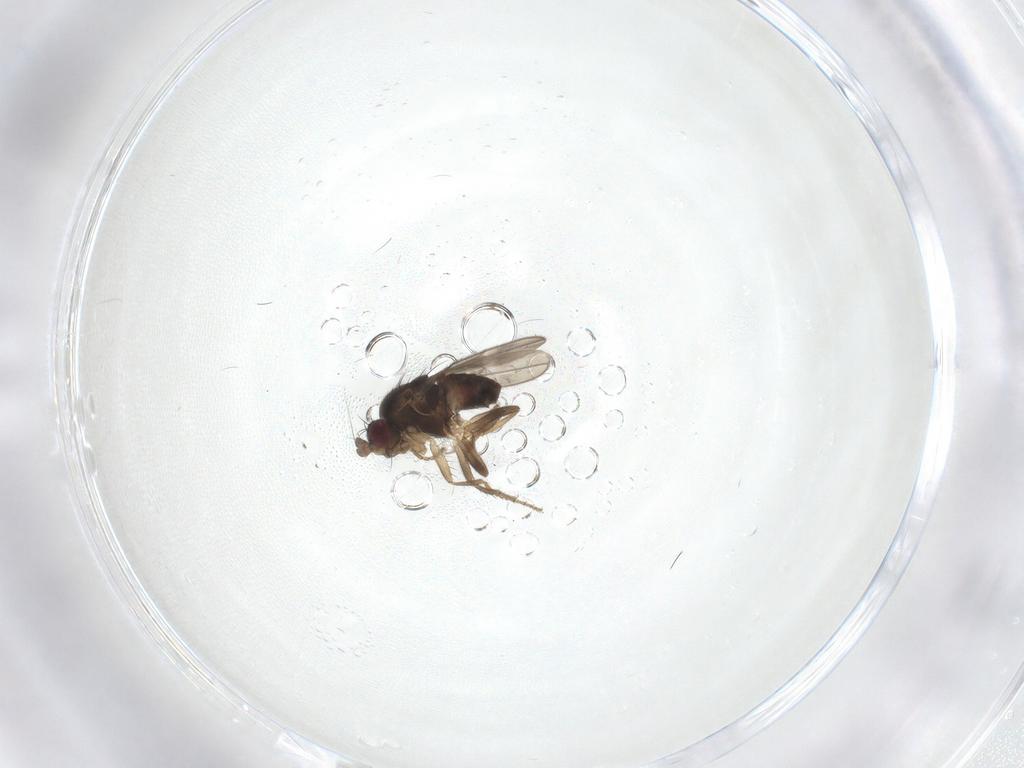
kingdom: Animalia
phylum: Arthropoda
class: Insecta
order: Diptera
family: Sphaeroceridae
